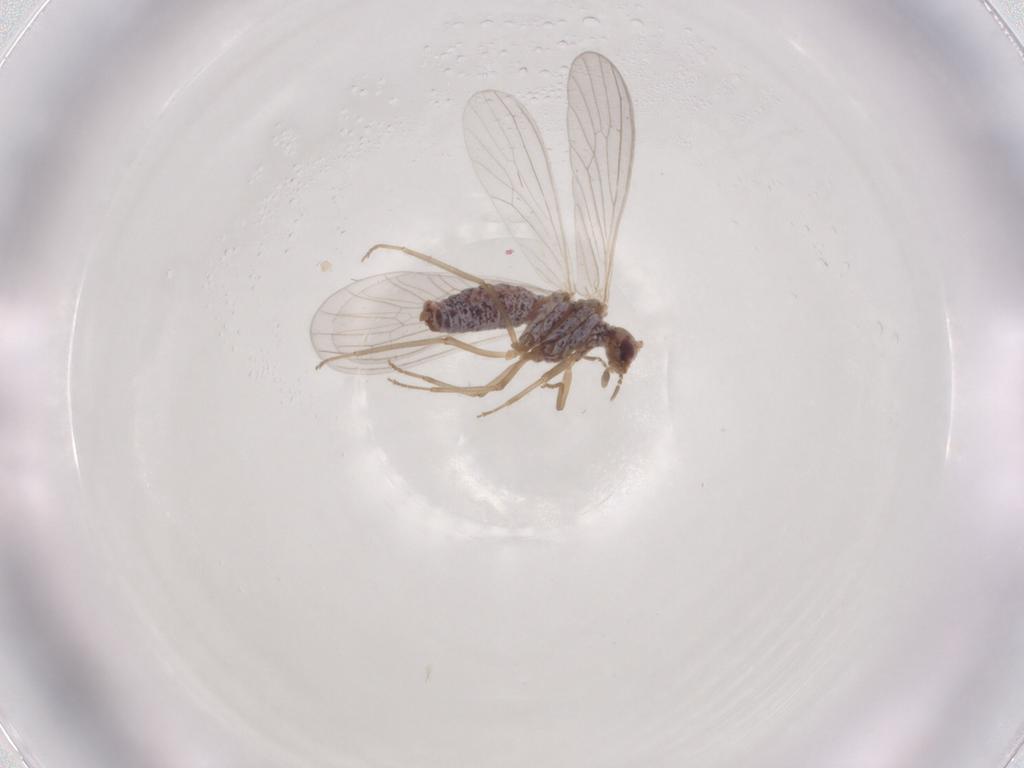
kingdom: Animalia
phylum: Arthropoda
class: Insecta
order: Neuroptera
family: Coniopterygidae
